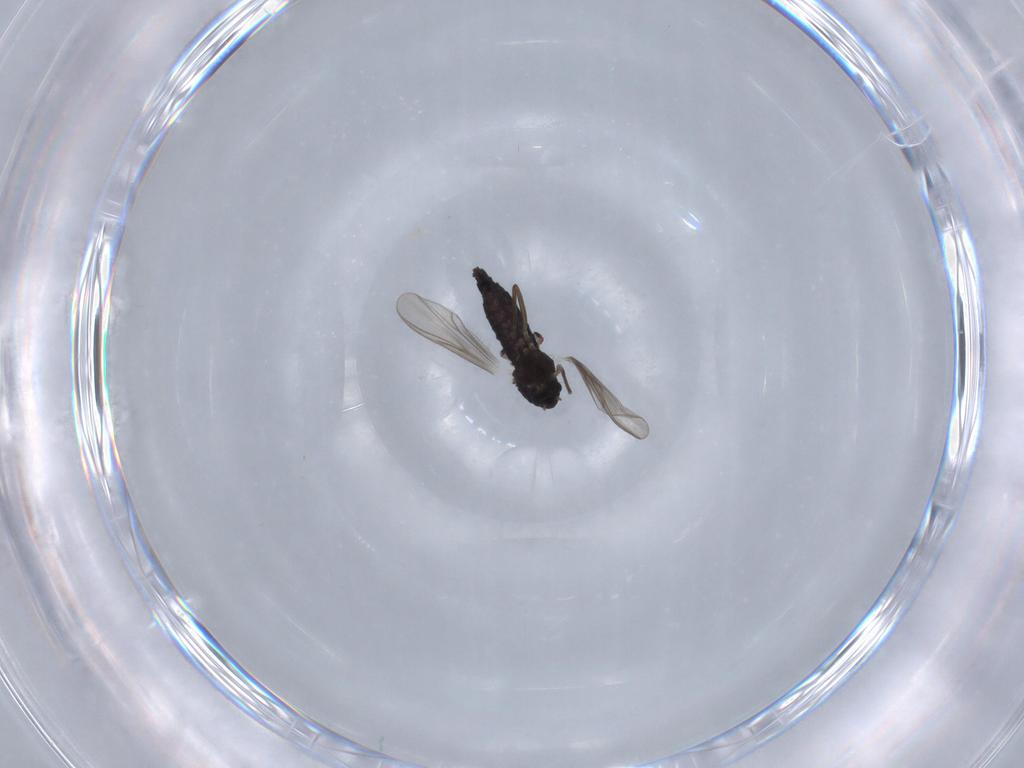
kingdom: Animalia
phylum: Arthropoda
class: Insecta
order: Diptera
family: Chironomidae
